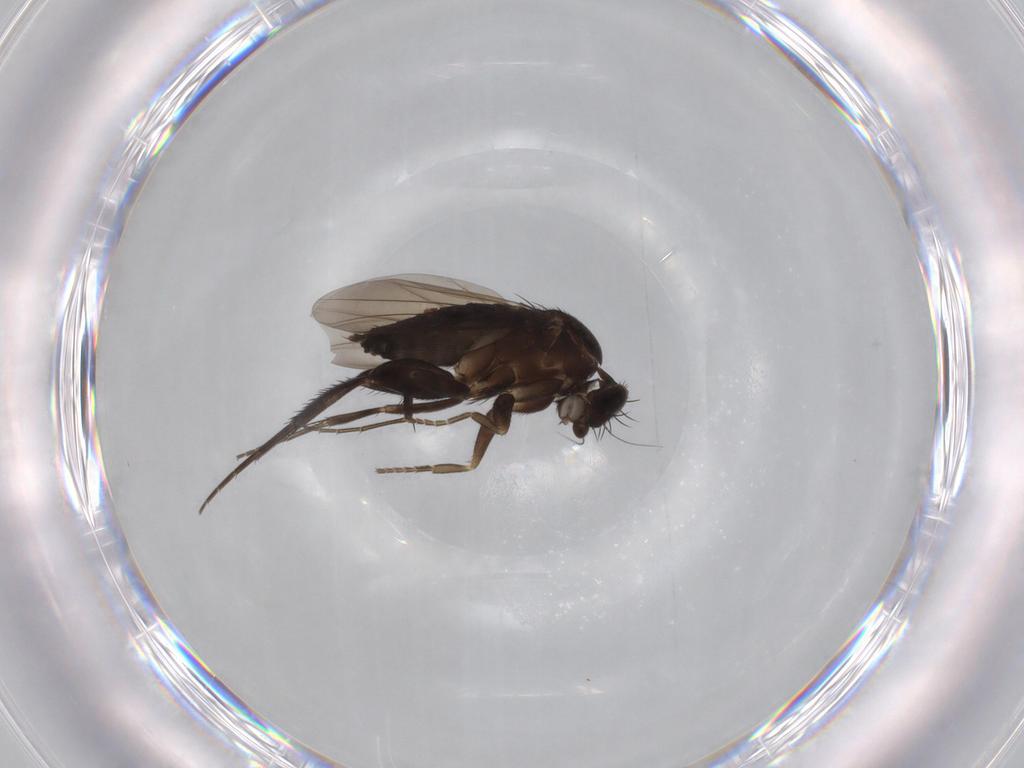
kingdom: Animalia
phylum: Arthropoda
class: Insecta
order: Diptera
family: Phoridae
